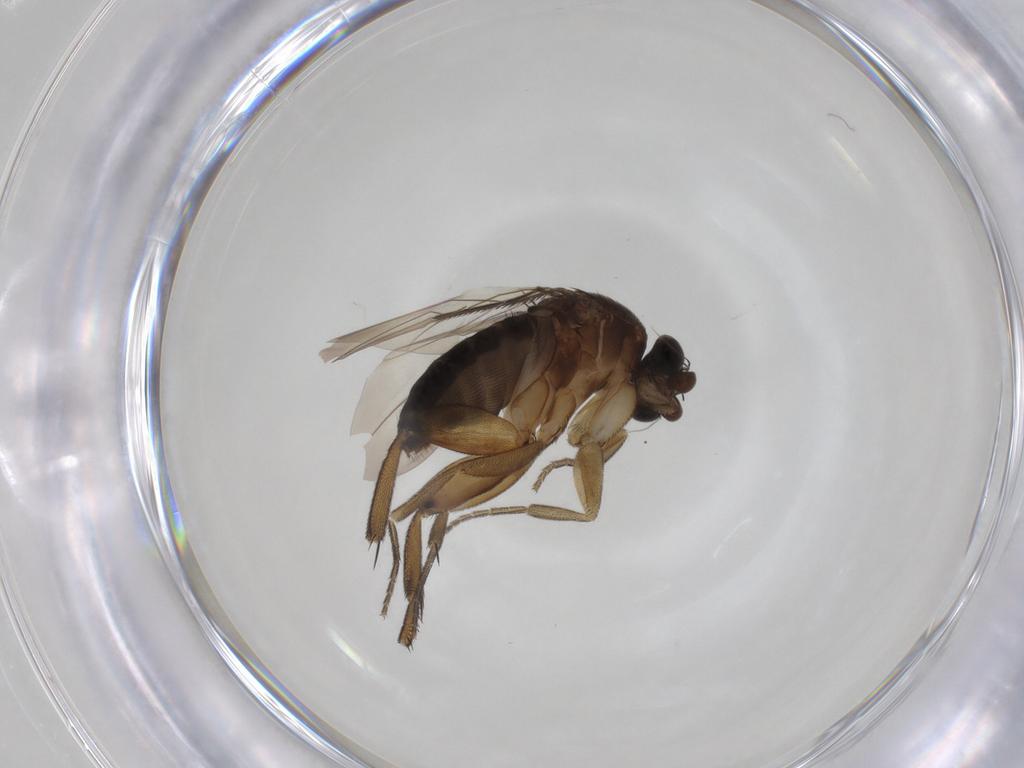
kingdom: Animalia
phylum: Arthropoda
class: Insecta
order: Diptera
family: Phoridae
